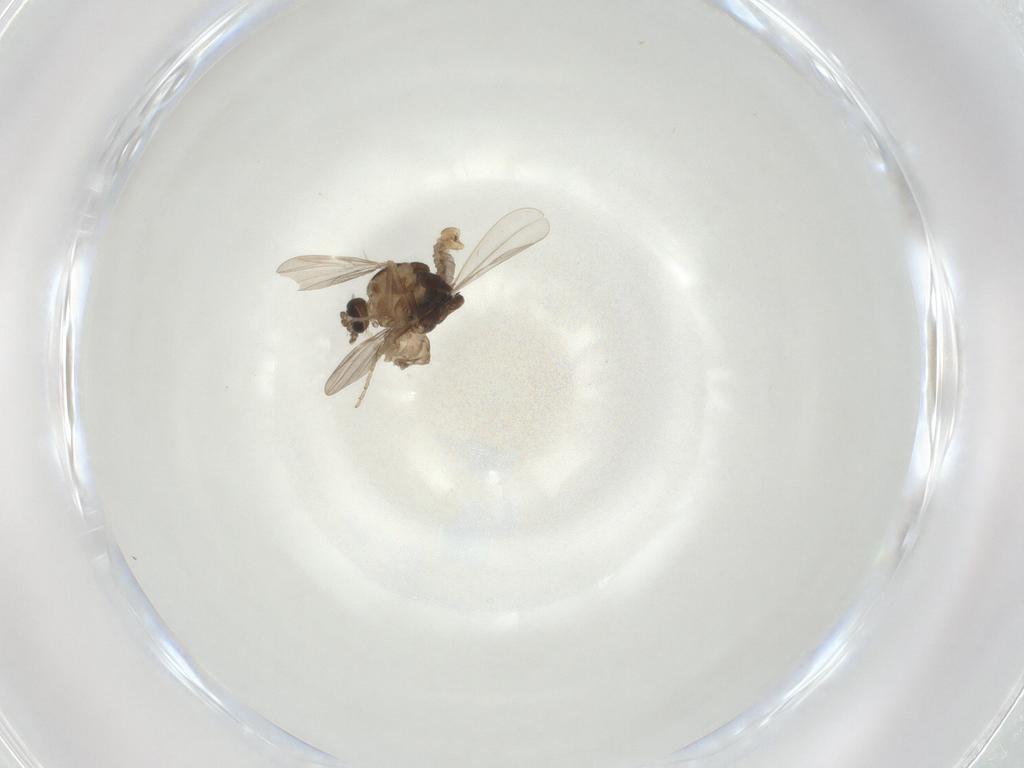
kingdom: Animalia
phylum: Arthropoda
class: Insecta
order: Diptera
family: Ceratopogonidae
